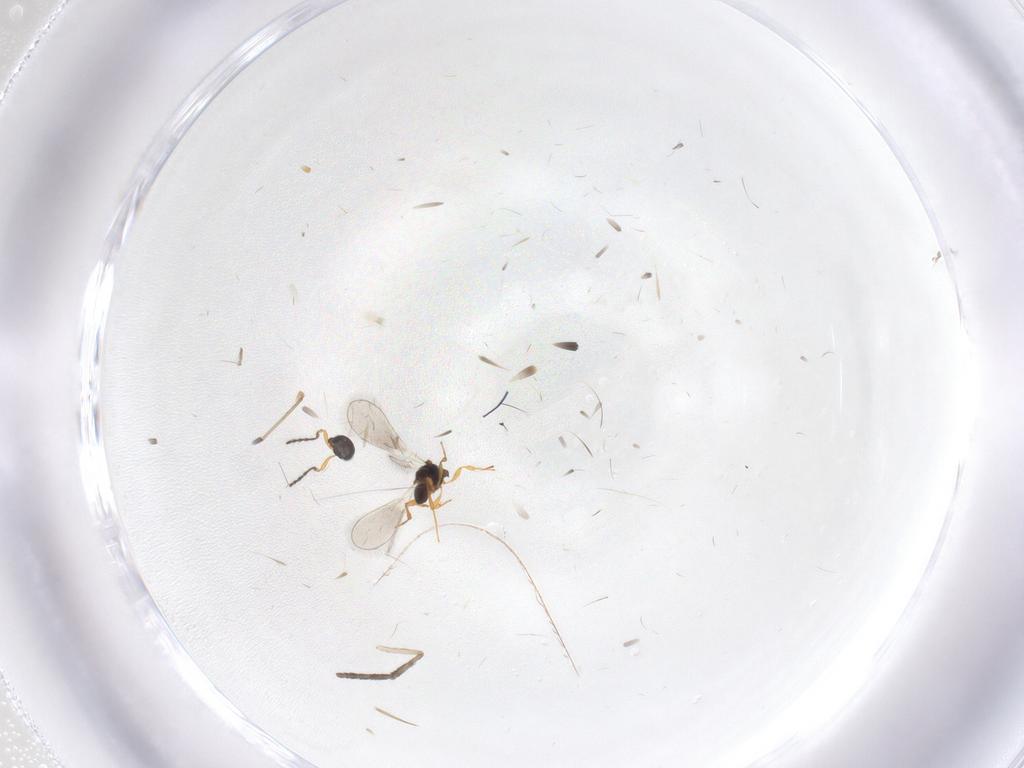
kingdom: Animalia
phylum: Arthropoda
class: Insecta
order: Hymenoptera
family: Platygastridae
